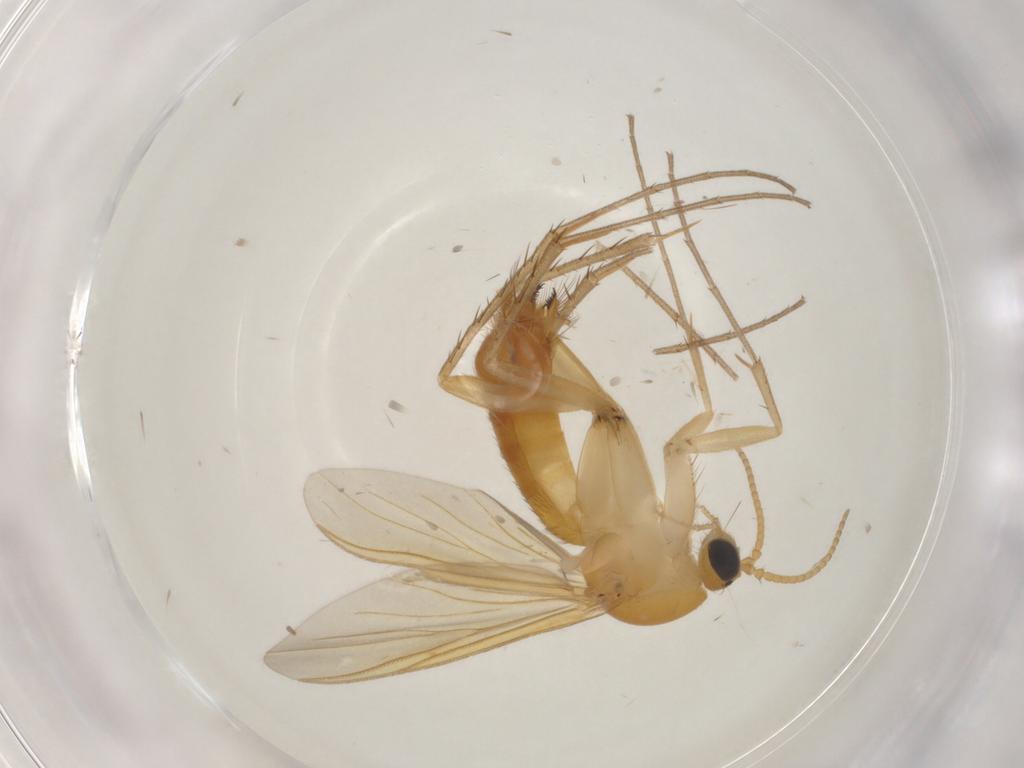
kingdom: Animalia
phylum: Arthropoda
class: Insecta
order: Diptera
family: Mycetophilidae
